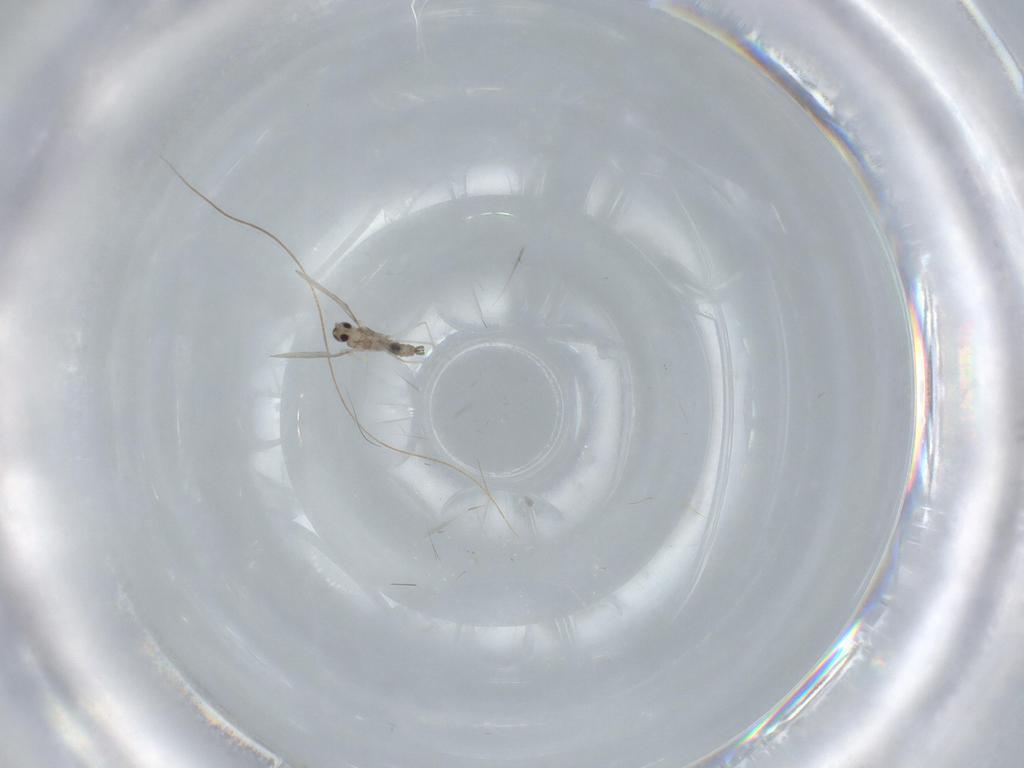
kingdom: Animalia
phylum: Arthropoda
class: Insecta
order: Diptera
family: Cecidomyiidae
